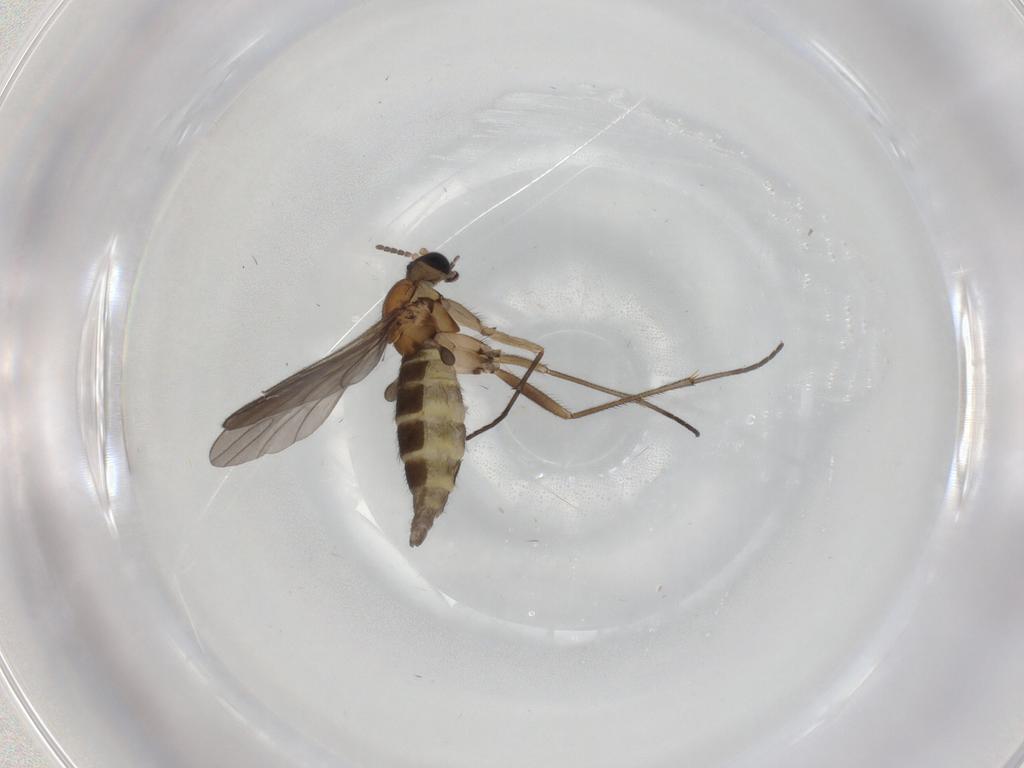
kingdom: Animalia
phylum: Arthropoda
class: Insecta
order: Diptera
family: Sciaridae
